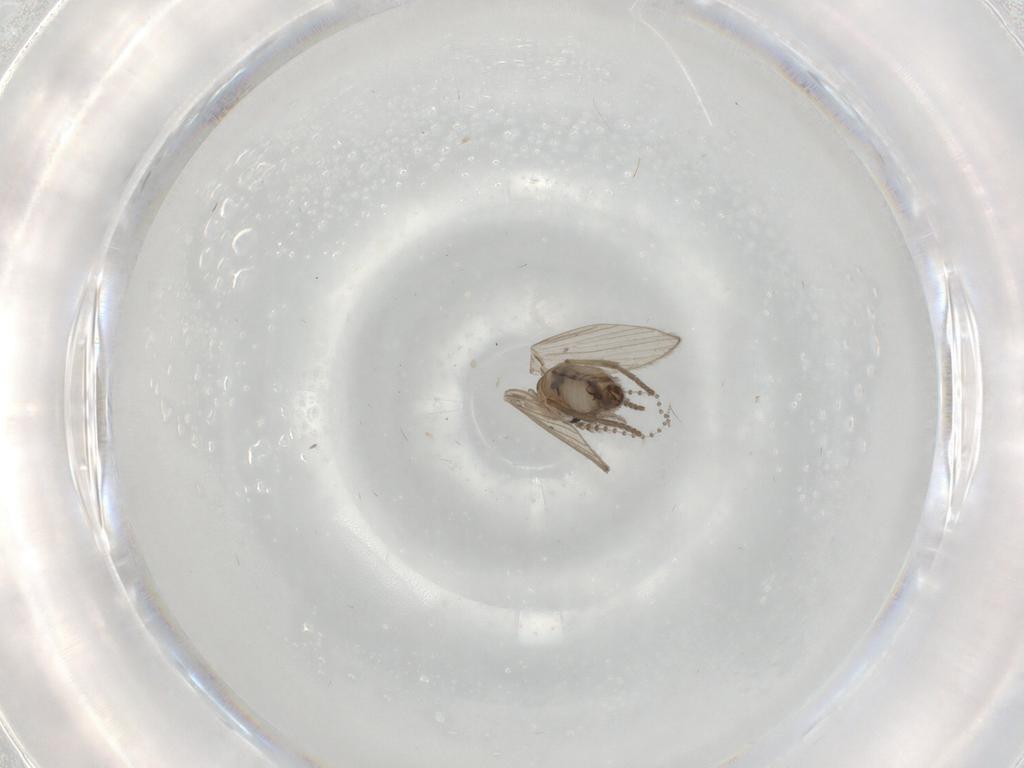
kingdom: Animalia
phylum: Arthropoda
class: Insecta
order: Diptera
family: Psychodidae
